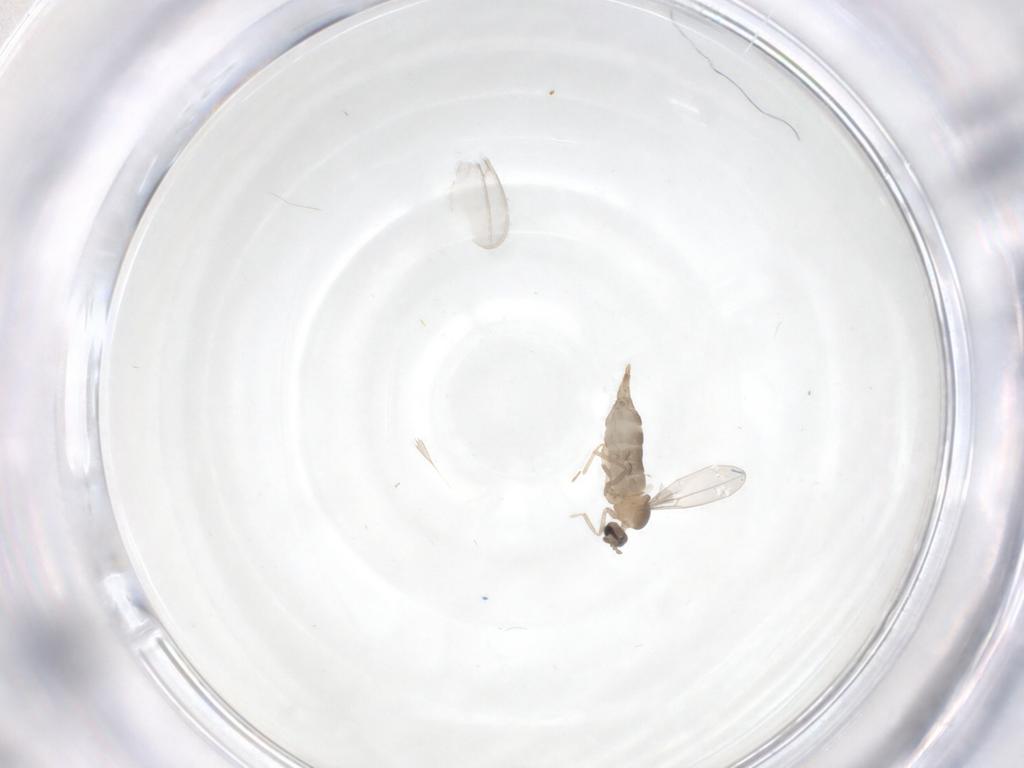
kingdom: Animalia
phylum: Arthropoda
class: Insecta
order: Diptera
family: Cecidomyiidae
